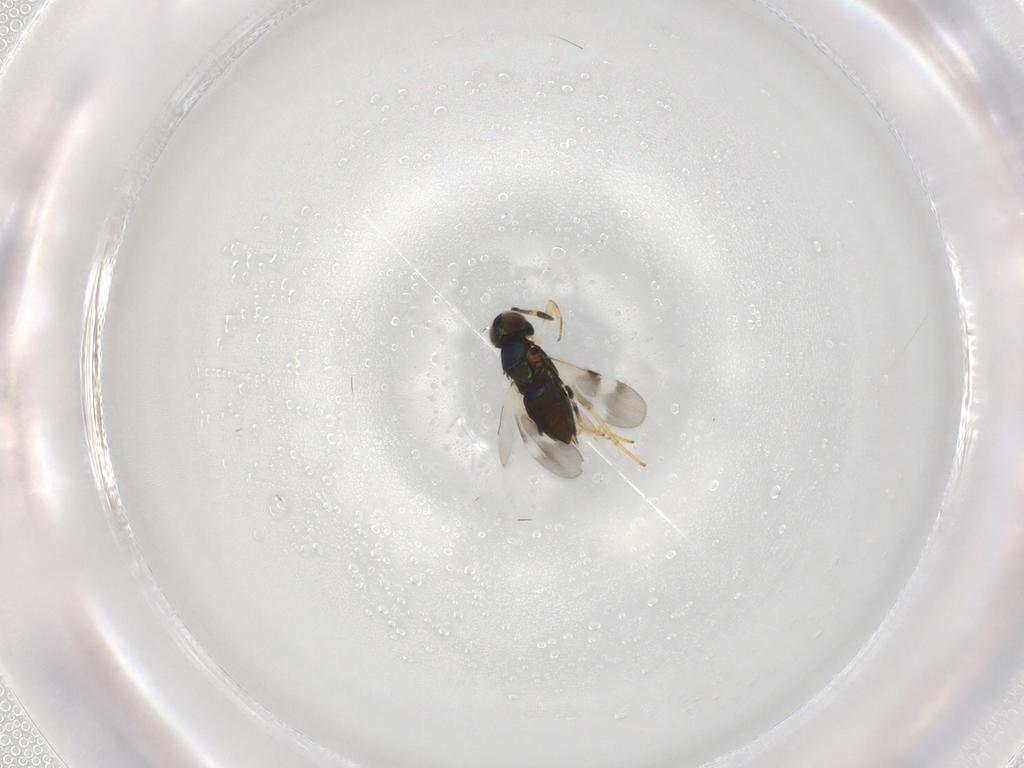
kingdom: Animalia
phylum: Arthropoda
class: Insecta
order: Hymenoptera
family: Encyrtidae
